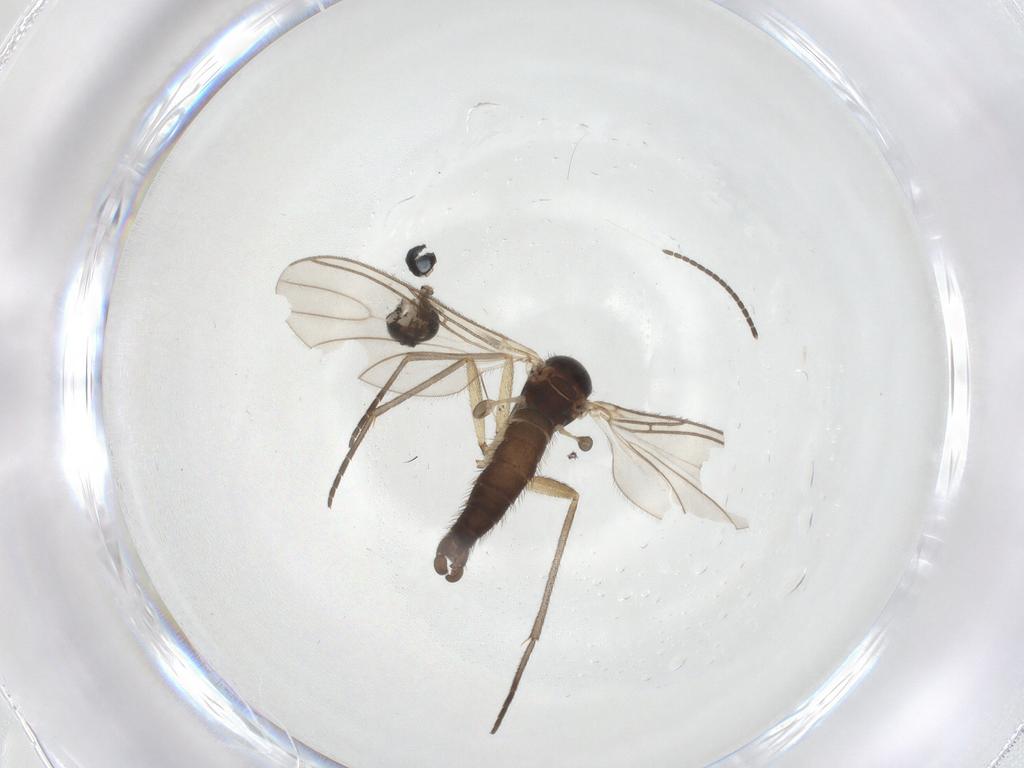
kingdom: Animalia
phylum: Arthropoda
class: Insecta
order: Diptera
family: Sciaridae
